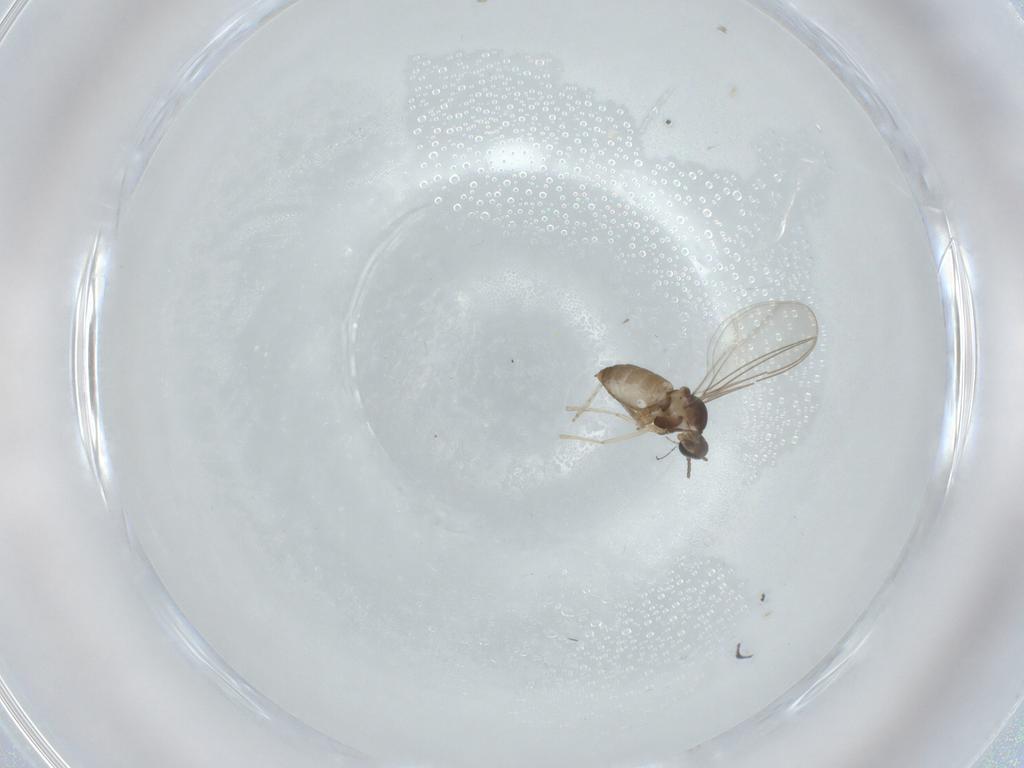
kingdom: Animalia
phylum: Arthropoda
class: Insecta
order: Diptera
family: Cecidomyiidae
